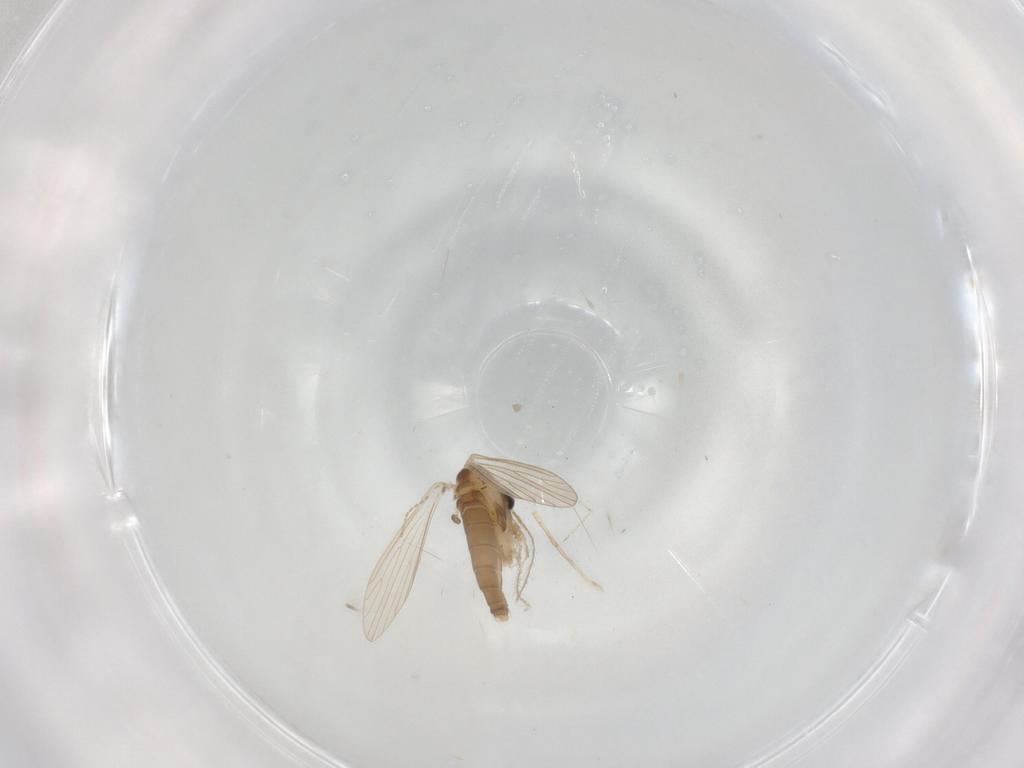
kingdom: Animalia
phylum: Arthropoda
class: Insecta
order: Diptera
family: Psychodidae
